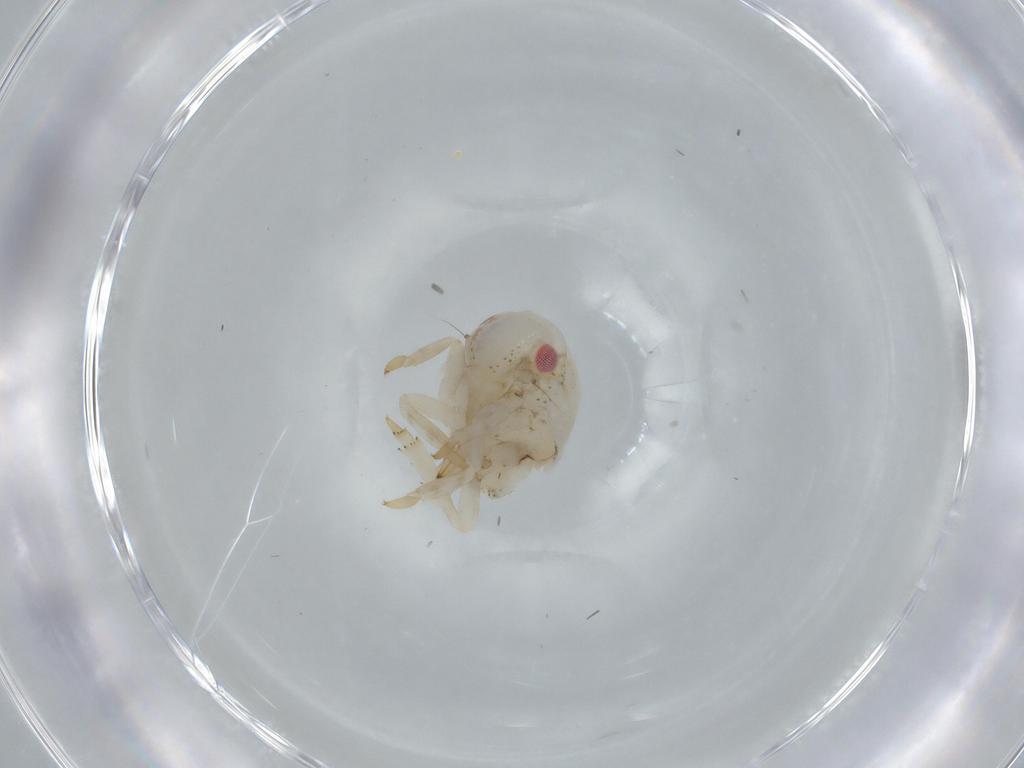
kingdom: Animalia
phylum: Arthropoda
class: Insecta
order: Hemiptera
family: Acanaloniidae
